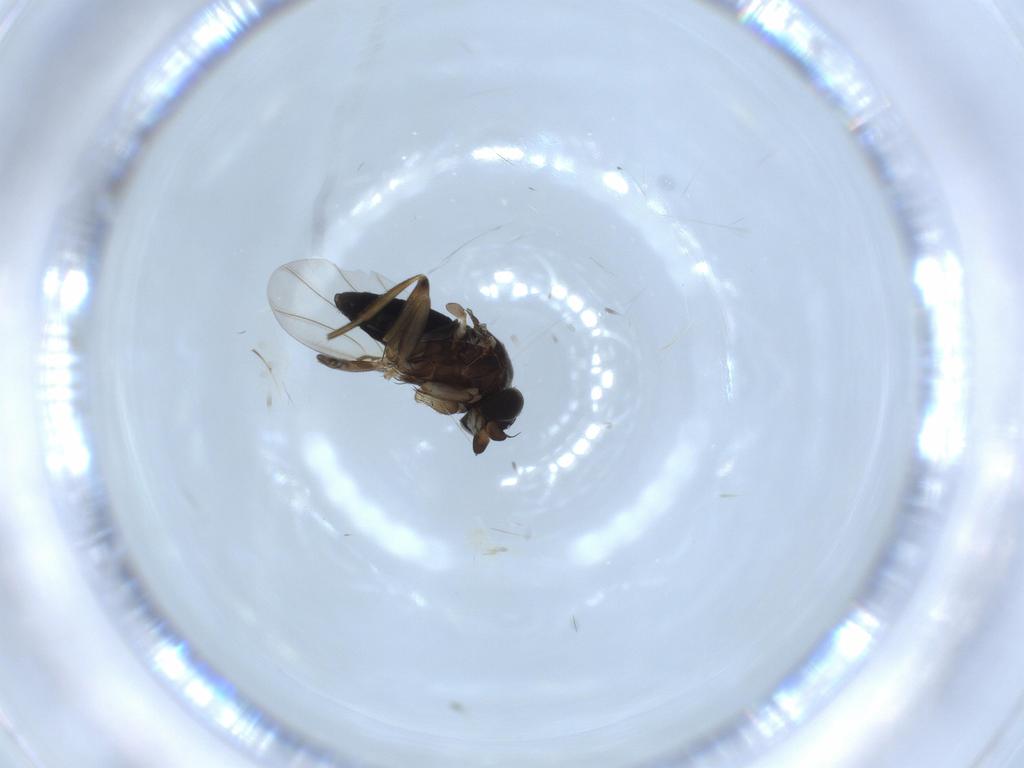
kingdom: Animalia
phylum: Arthropoda
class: Insecta
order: Diptera
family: Phoridae
